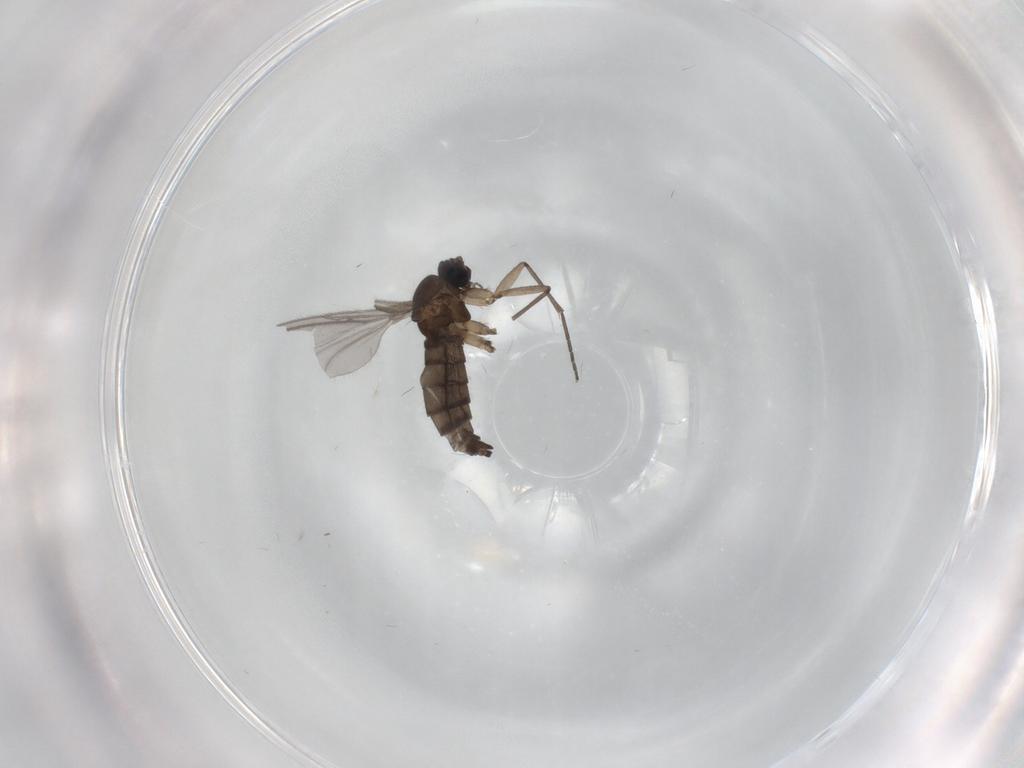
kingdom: Animalia
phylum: Arthropoda
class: Insecta
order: Diptera
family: Sciaridae
